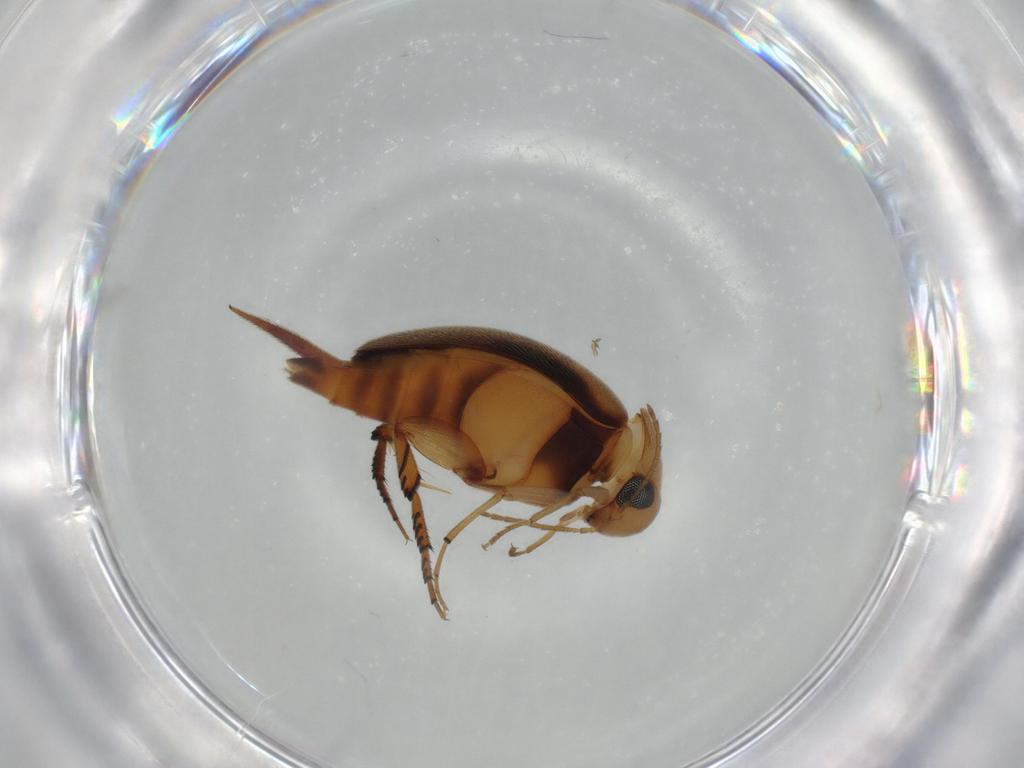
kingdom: Animalia
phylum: Arthropoda
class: Insecta
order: Coleoptera
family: Mordellidae
